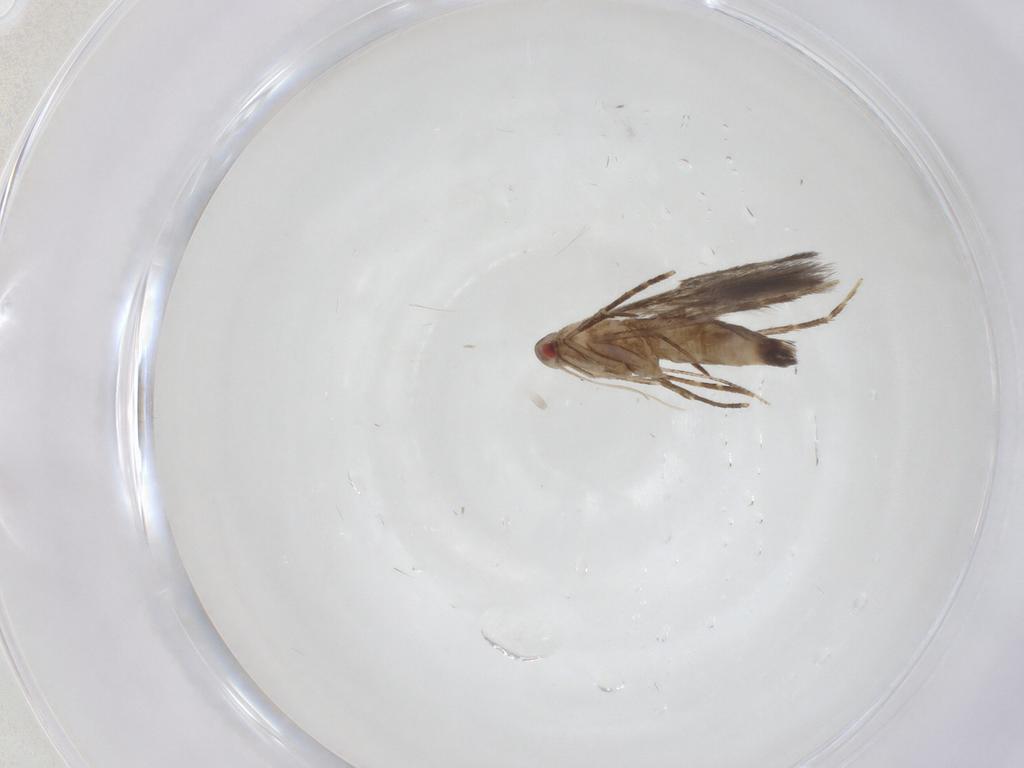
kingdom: Animalia
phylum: Arthropoda
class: Insecta
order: Lepidoptera
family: Cosmopterigidae
